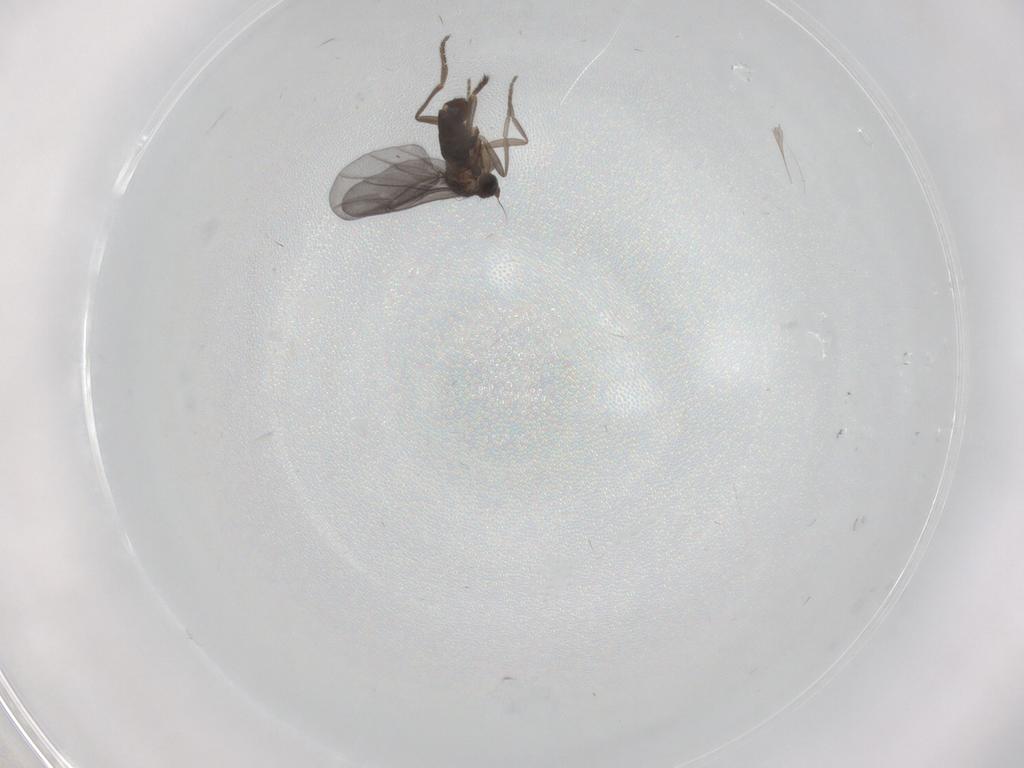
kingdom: Animalia
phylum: Arthropoda
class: Insecta
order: Diptera
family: Phoridae
